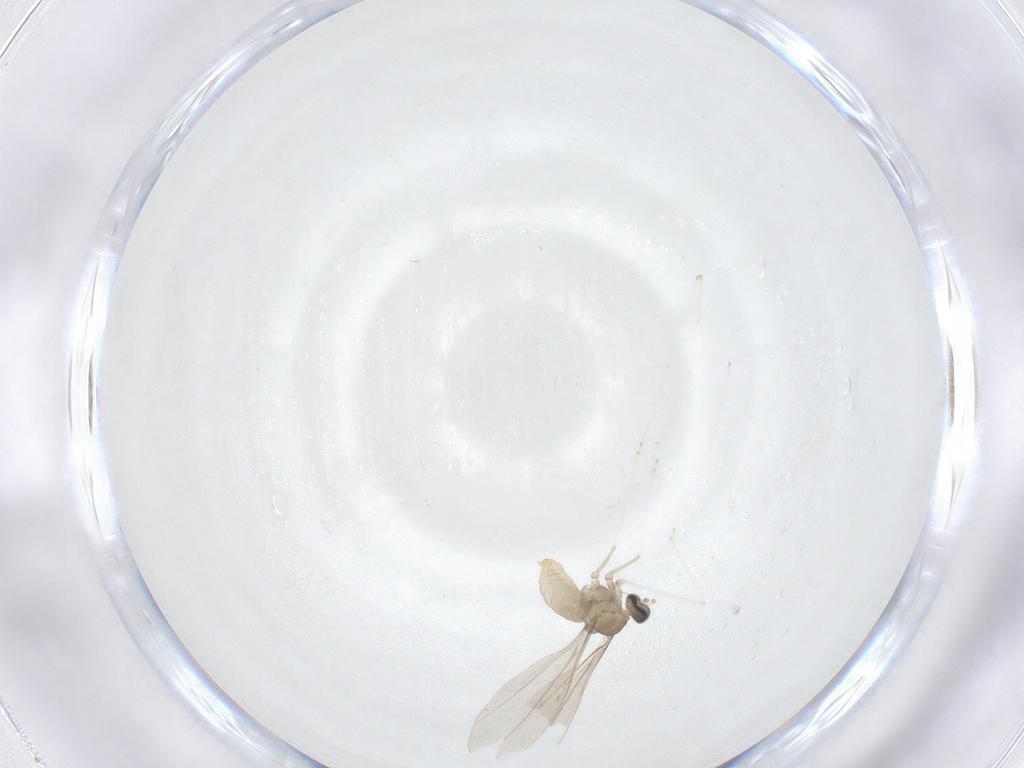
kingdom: Animalia
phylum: Arthropoda
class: Insecta
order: Diptera
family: Cecidomyiidae
